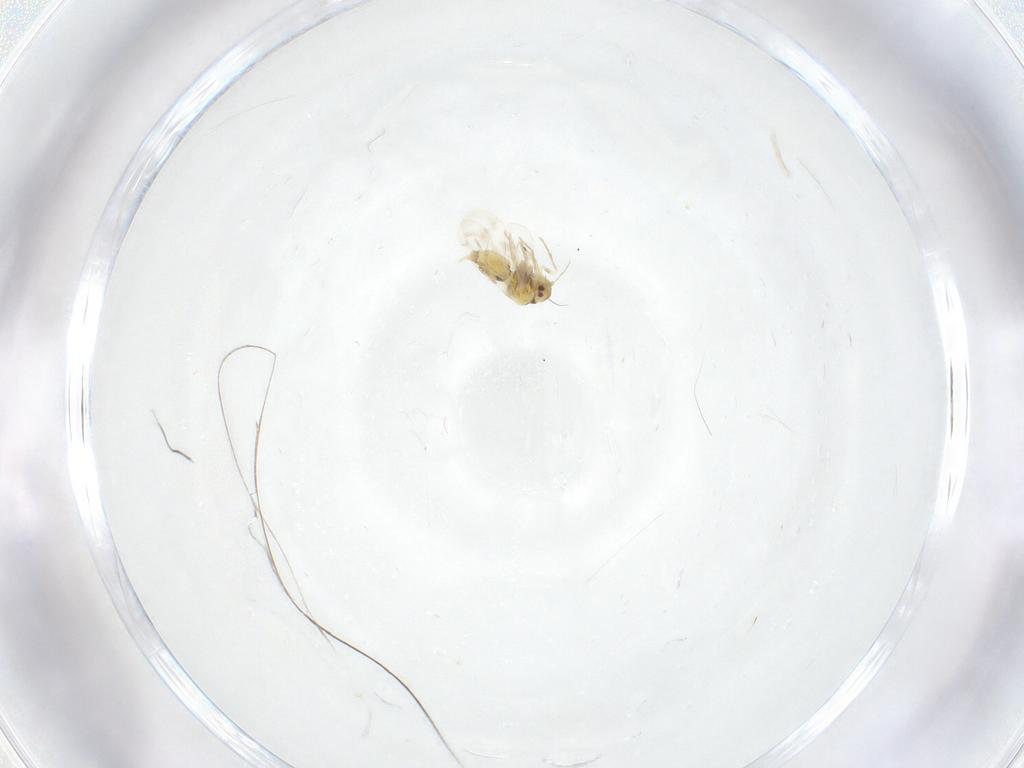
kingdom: Animalia
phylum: Arthropoda
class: Insecta
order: Hemiptera
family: Aleyrodidae
